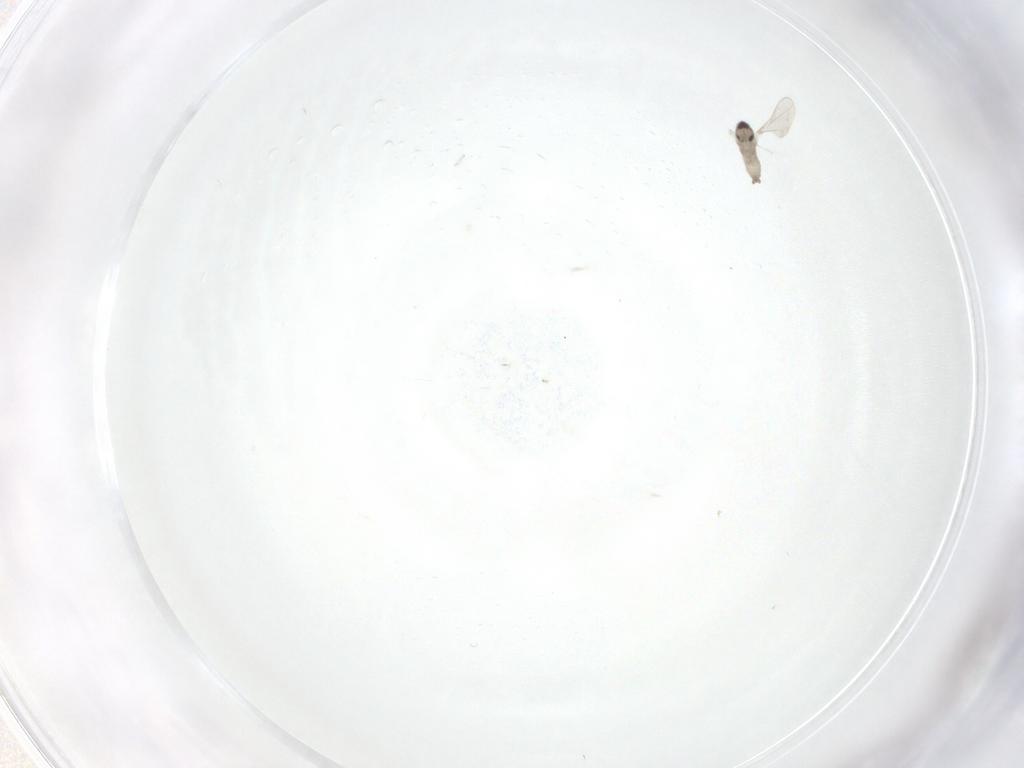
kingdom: Animalia
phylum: Arthropoda
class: Insecta
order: Diptera
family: Cecidomyiidae
